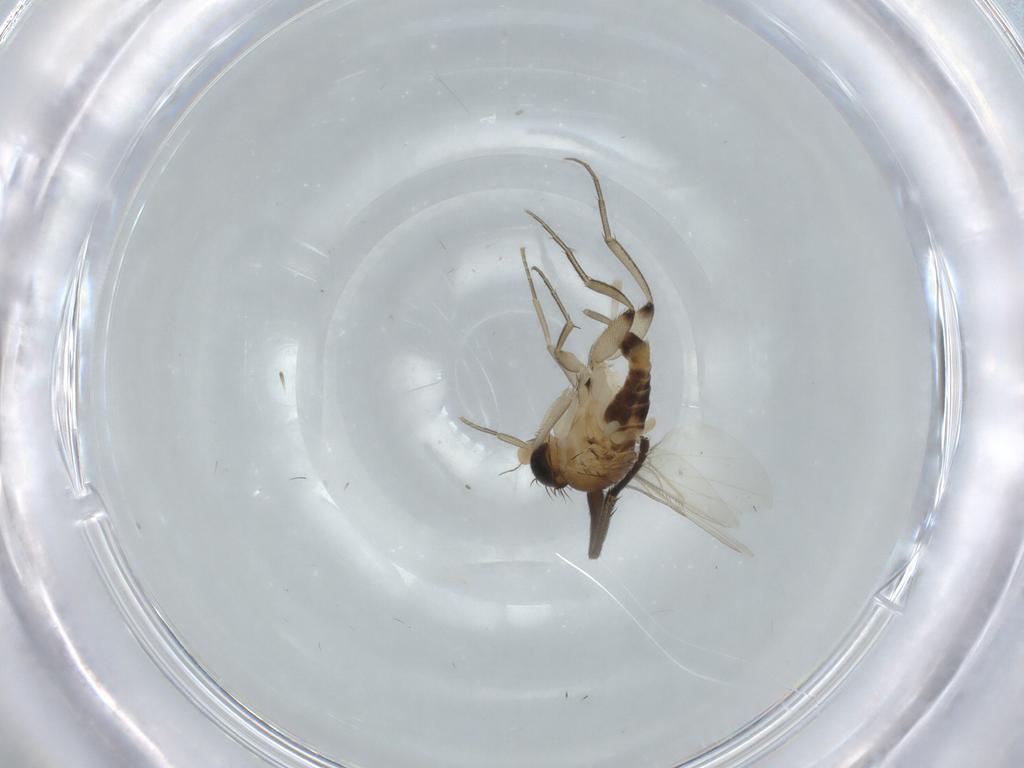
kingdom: Animalia
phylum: Arthropoda
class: Insecta
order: Diptera
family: Phoridae
